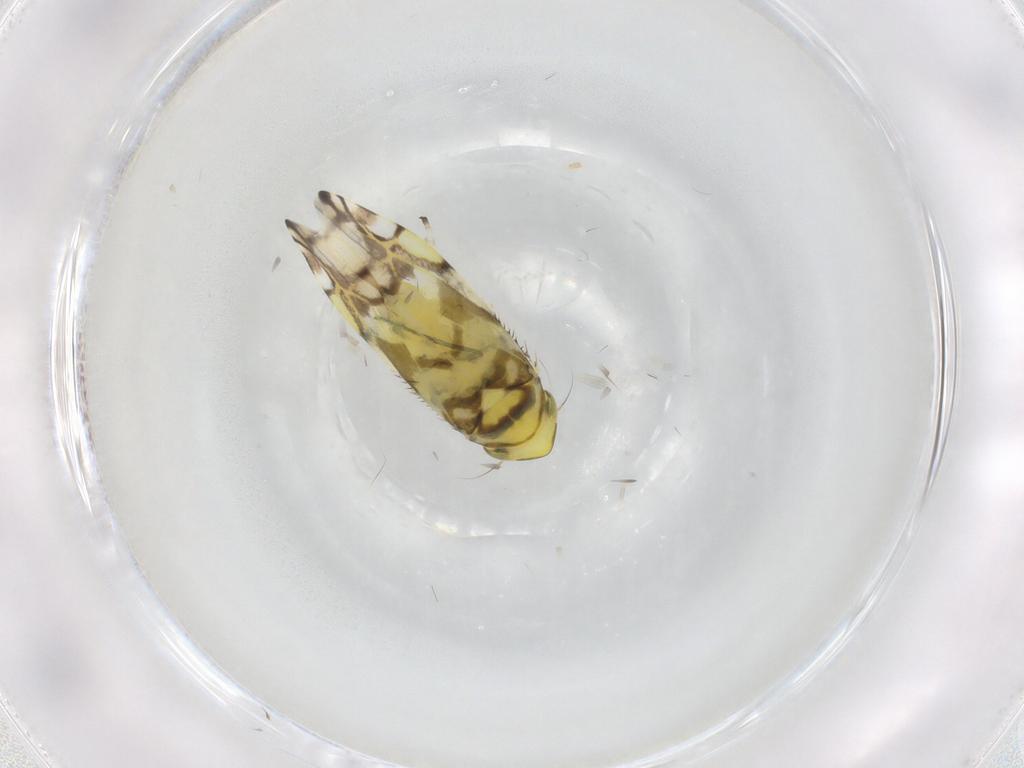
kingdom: Animalia
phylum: Arthropoda
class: Insecta
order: Hemiptera
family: Cicadellidae
